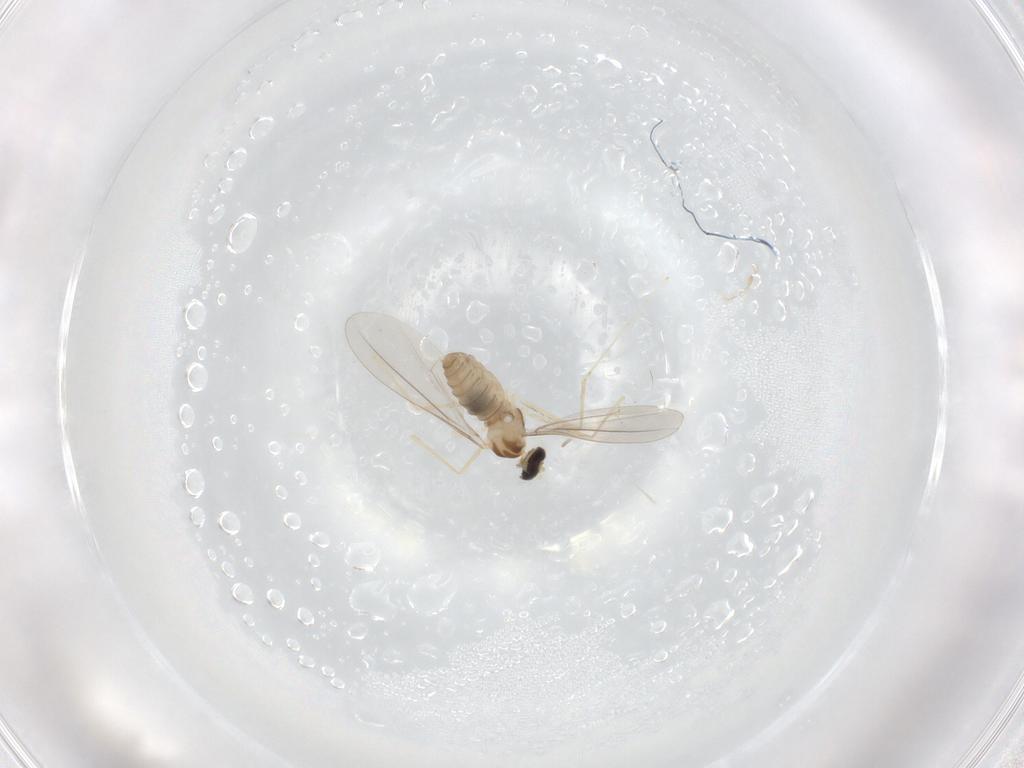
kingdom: Animalia
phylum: Arthropoda
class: Insecta
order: Diptera
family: Cecidomyiidae
